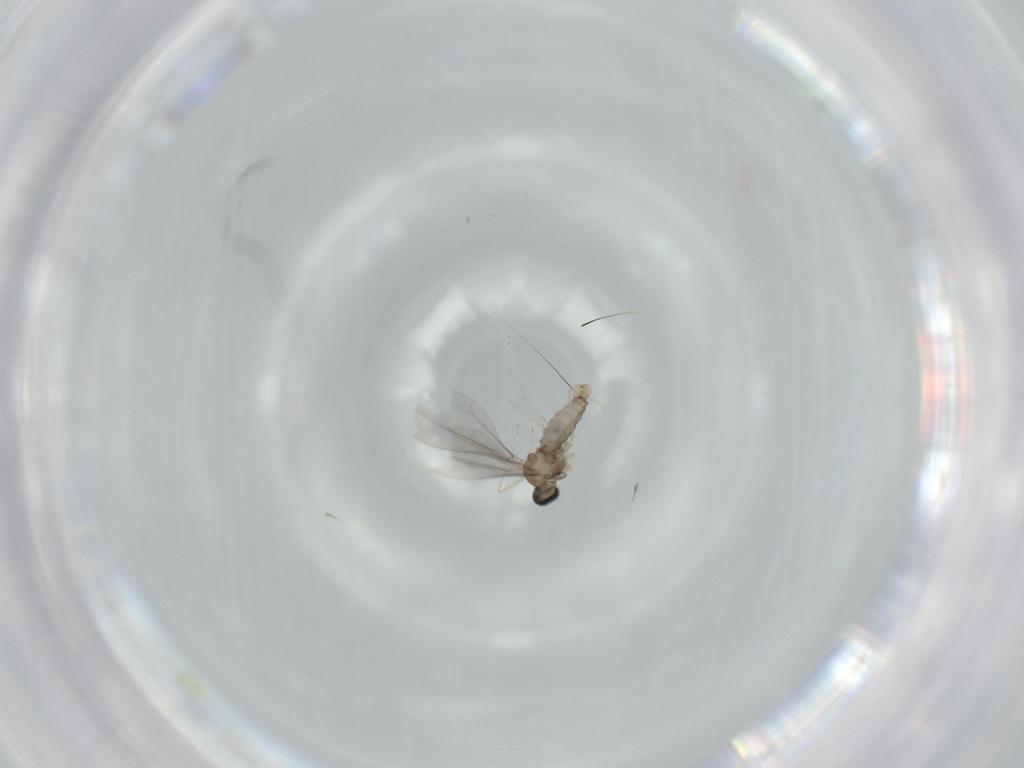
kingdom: Animalia
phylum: Arthropoda
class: Insecta
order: Diptera
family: Cecidomyiidae
